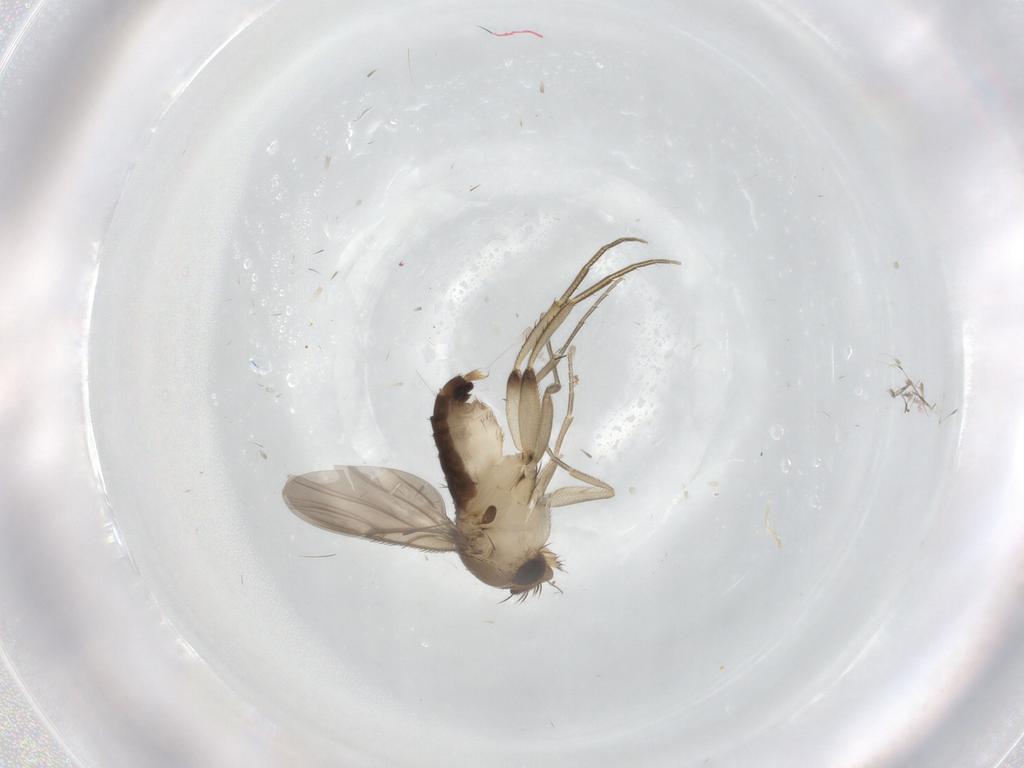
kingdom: Animalia
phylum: Arthropoda
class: Insecta
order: Diptera
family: Phoridae
